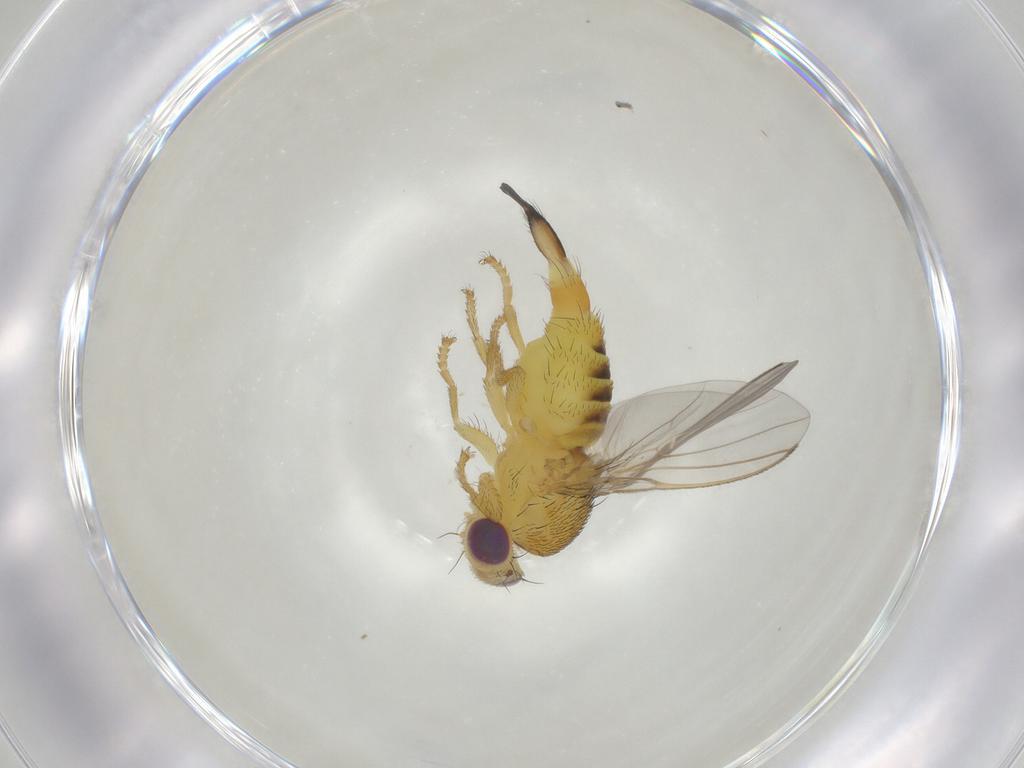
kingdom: Animalia
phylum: Arthropoda
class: Insecta
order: Diptera
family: Fergusoninidae
